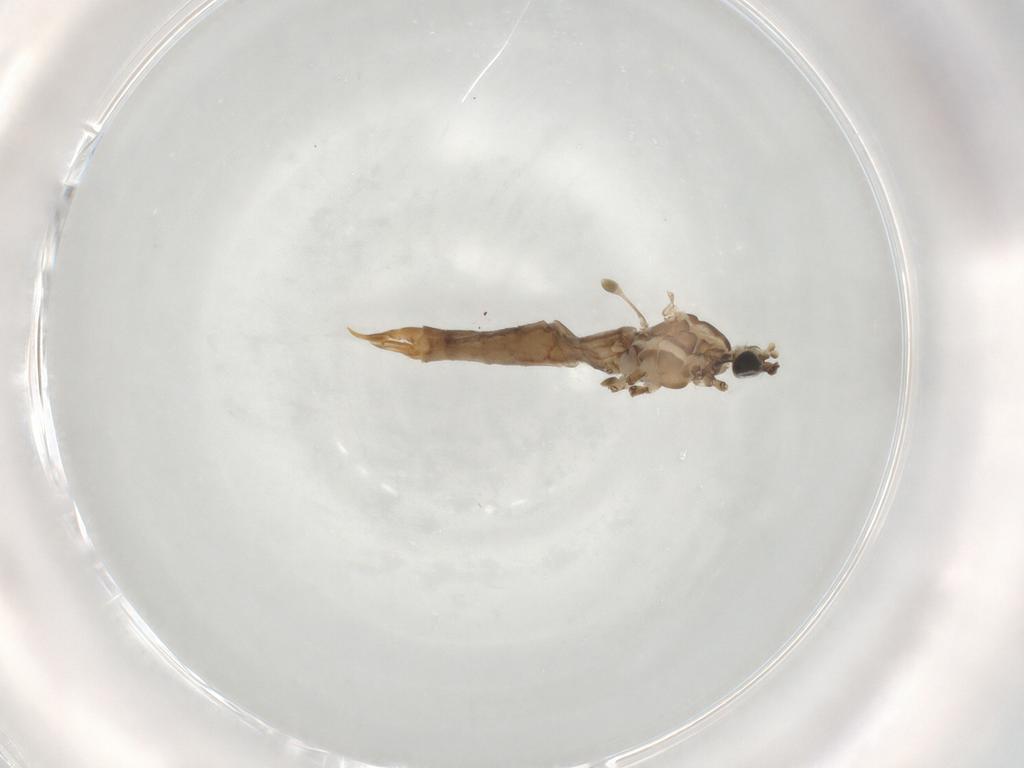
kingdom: Animalia
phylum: Arthropoda
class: Insecta
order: Diptera
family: Limoniidae
